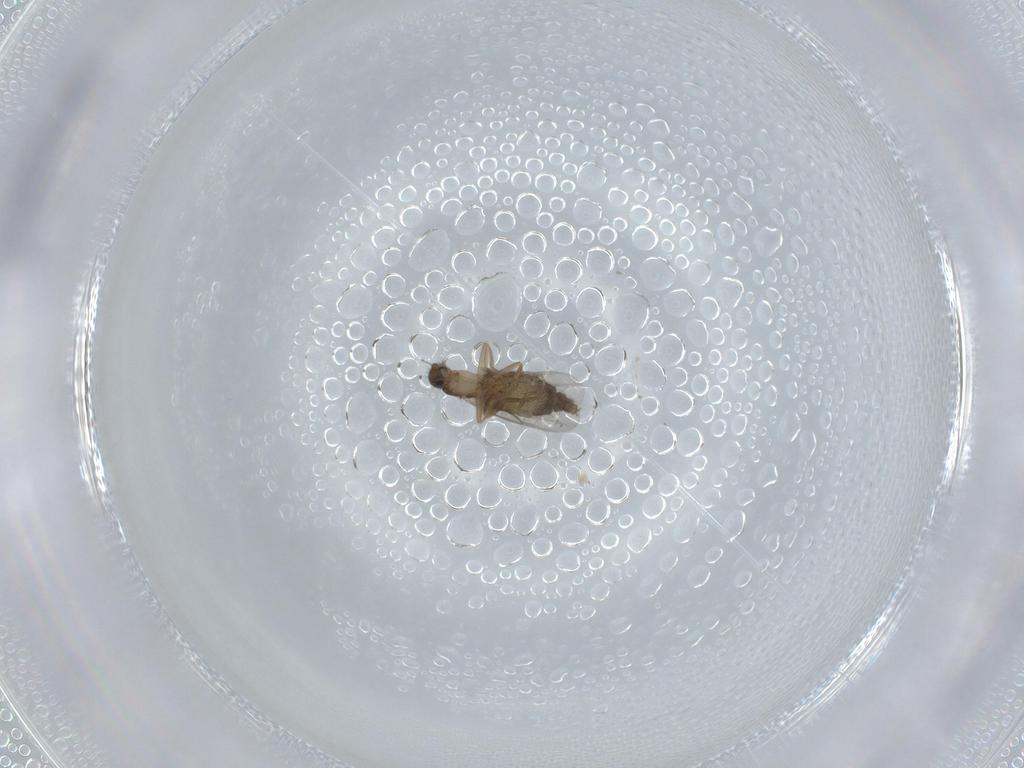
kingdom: Animalia
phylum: Arthropoda
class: Insecta
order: Diptera
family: Phoridae
